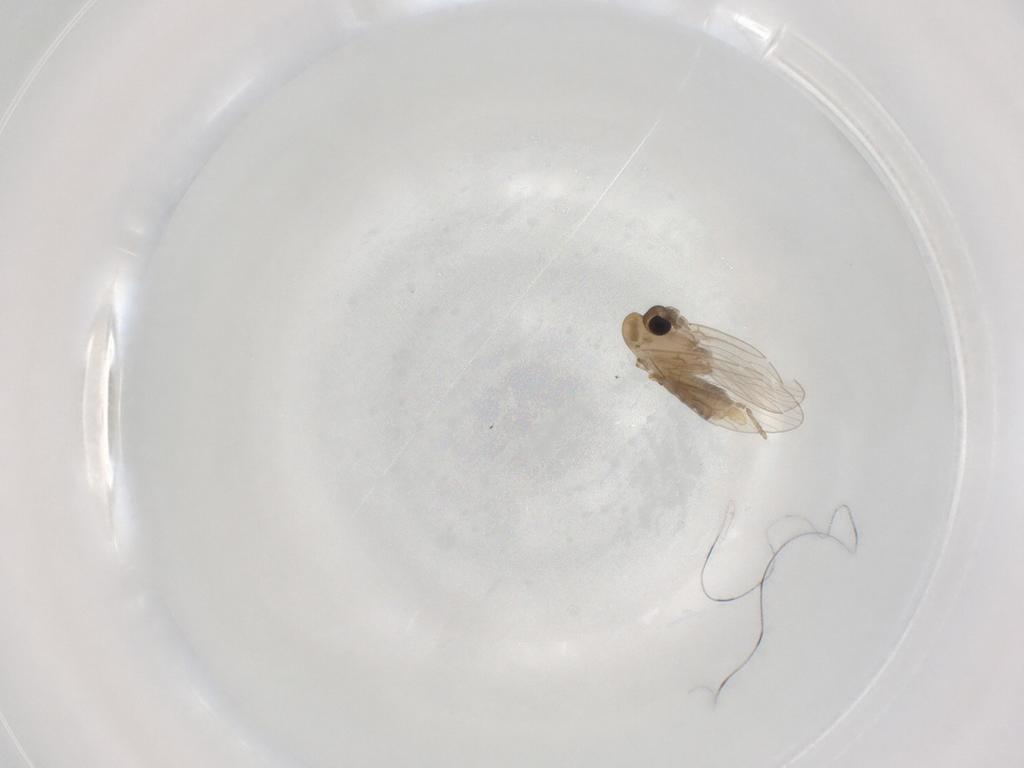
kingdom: Animalia
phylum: Arthropoda
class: Insecta
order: Diptera
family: Psychodidae
